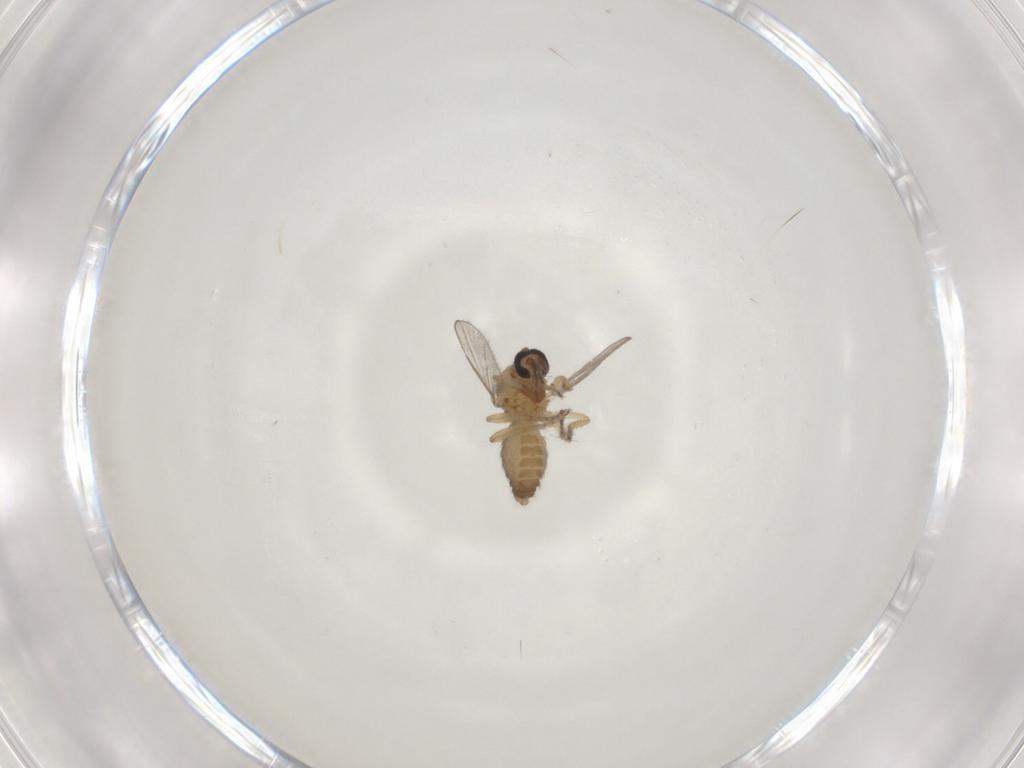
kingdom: Animalia
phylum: Arthropoda
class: Insecta
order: Diptera
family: Ceratopogonidae
